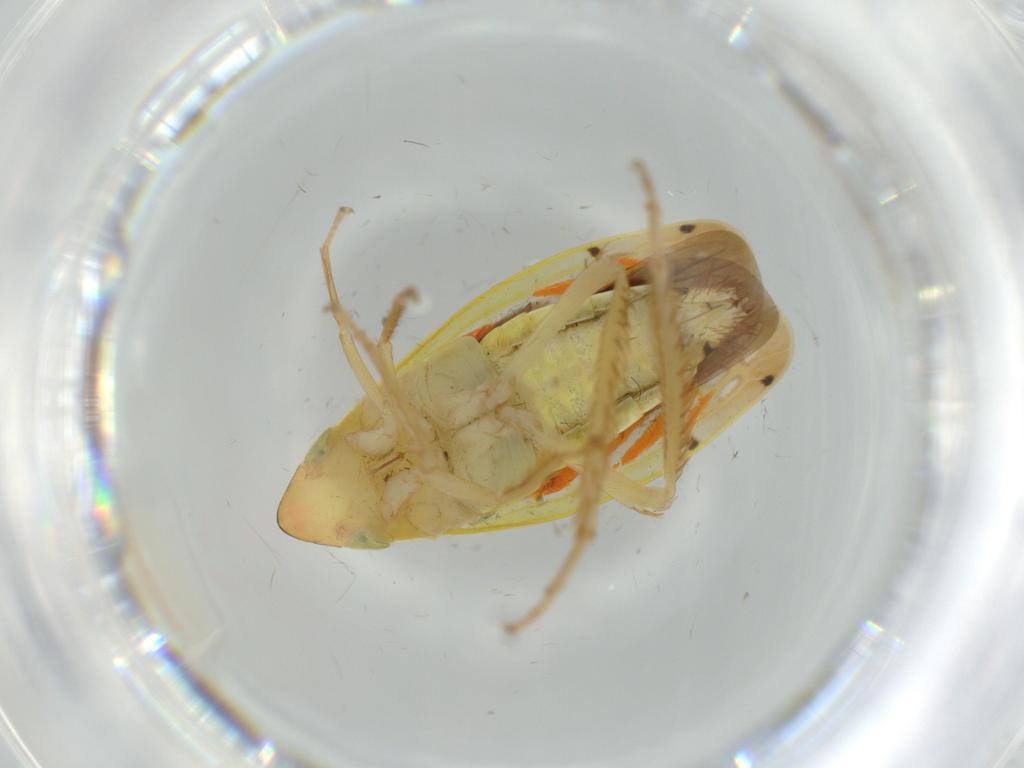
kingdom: Animalia
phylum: Arthropoda
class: Insecta
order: Hemiptera
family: Cicadellidae
